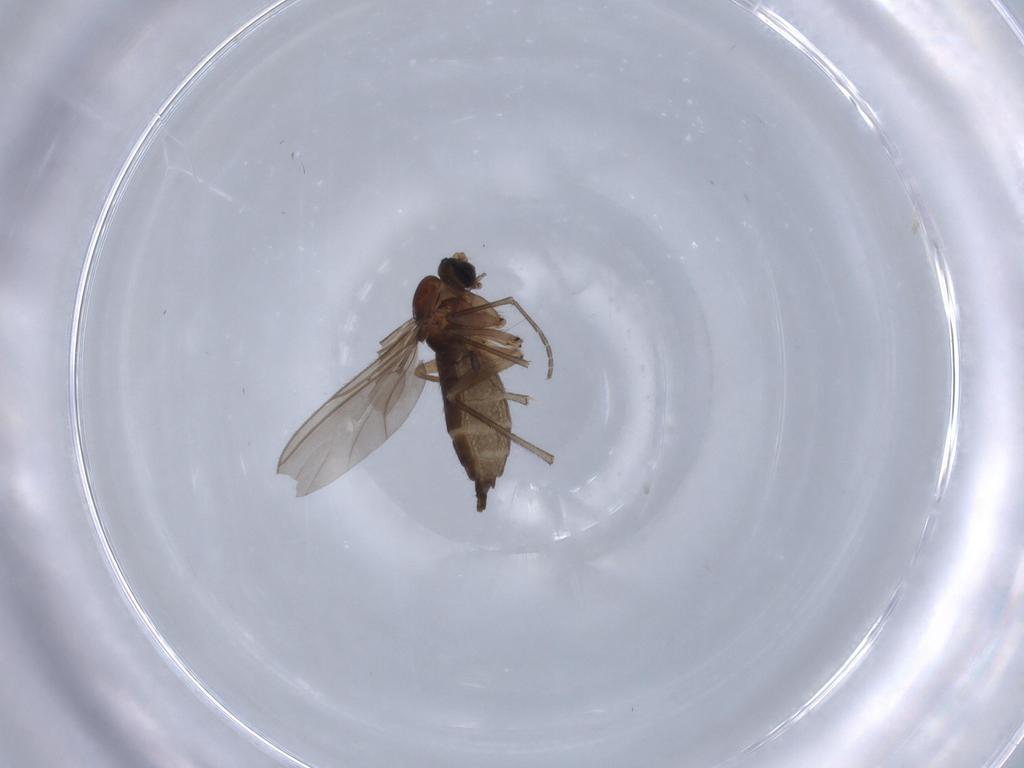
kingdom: Animalia
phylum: Arthropoda
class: Insecta
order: Diptera
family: Sciaridae
